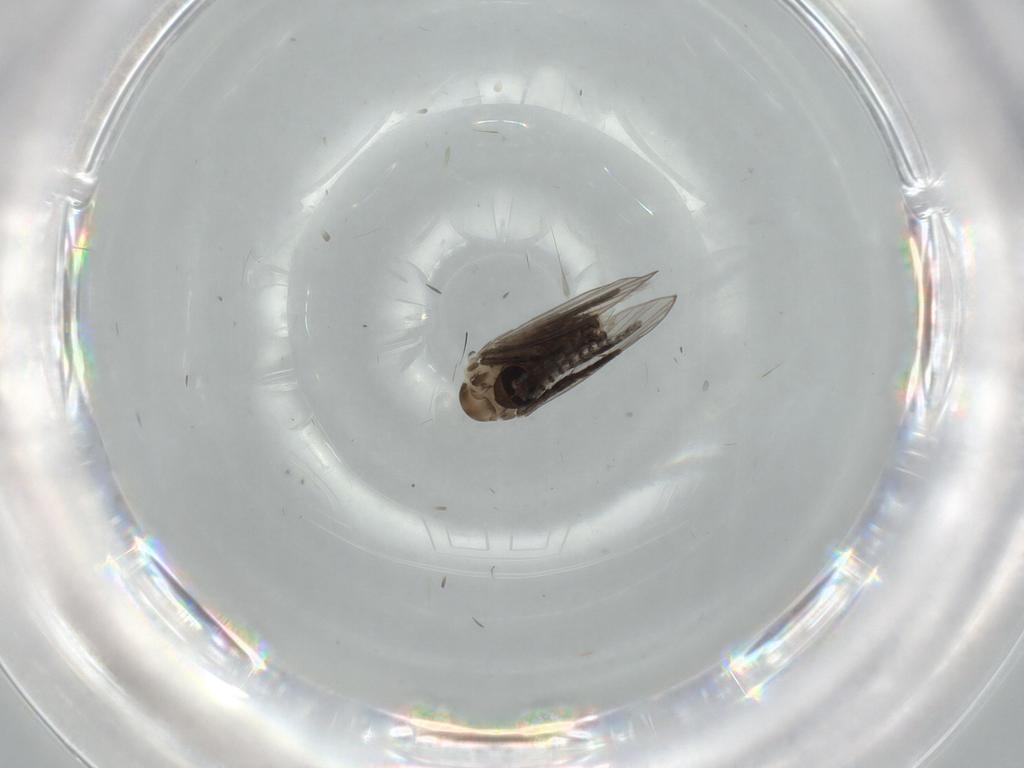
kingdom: Animalia
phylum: Arthropoda
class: Insecta
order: Diptera
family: Psychodidae
